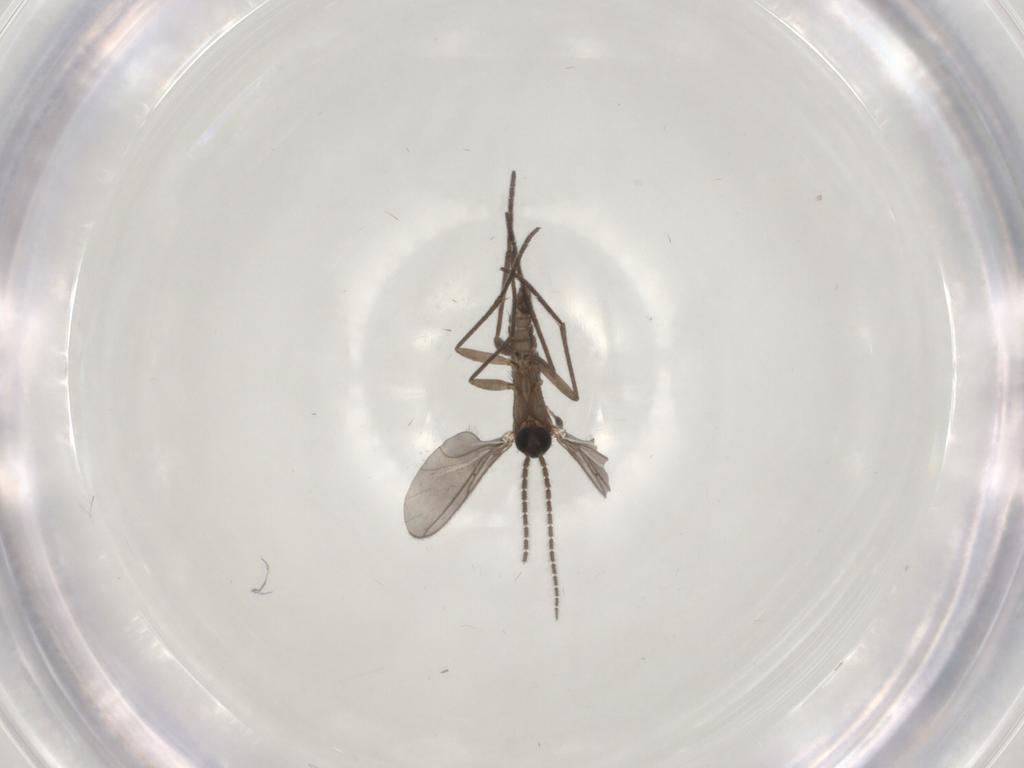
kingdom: Animalia
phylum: Arthropoda
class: Insecta
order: Diptera
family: Sciaridae
